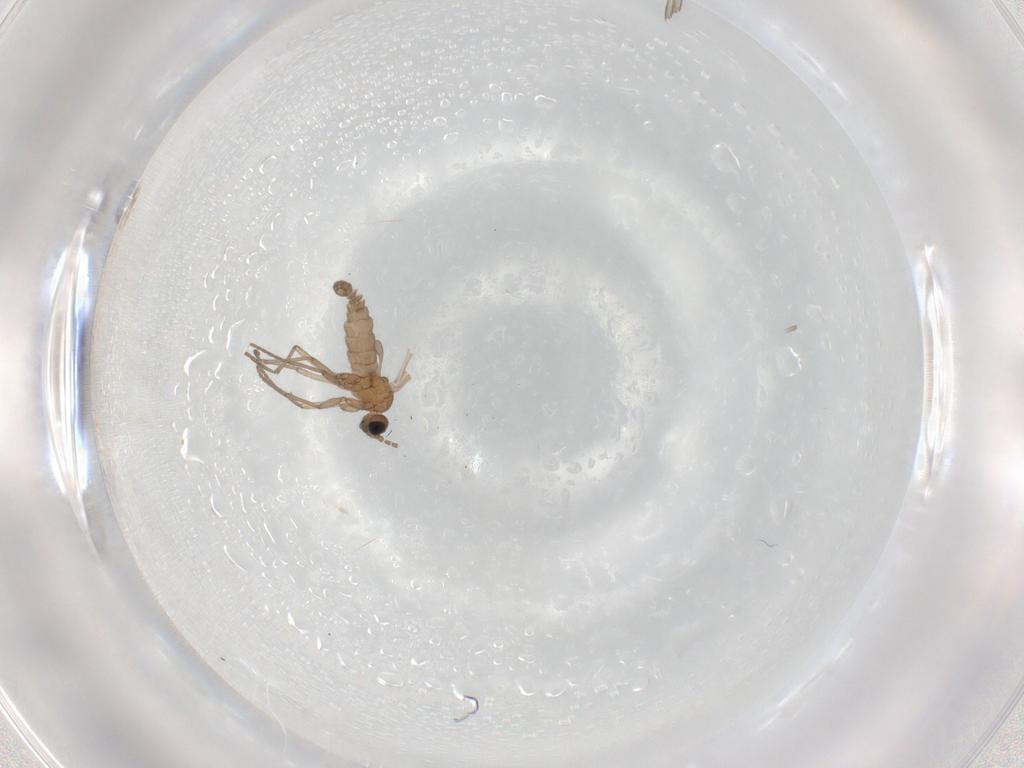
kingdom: Animalia
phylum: Arthropoda
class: Insecta
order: Diptera
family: Sciaridae
